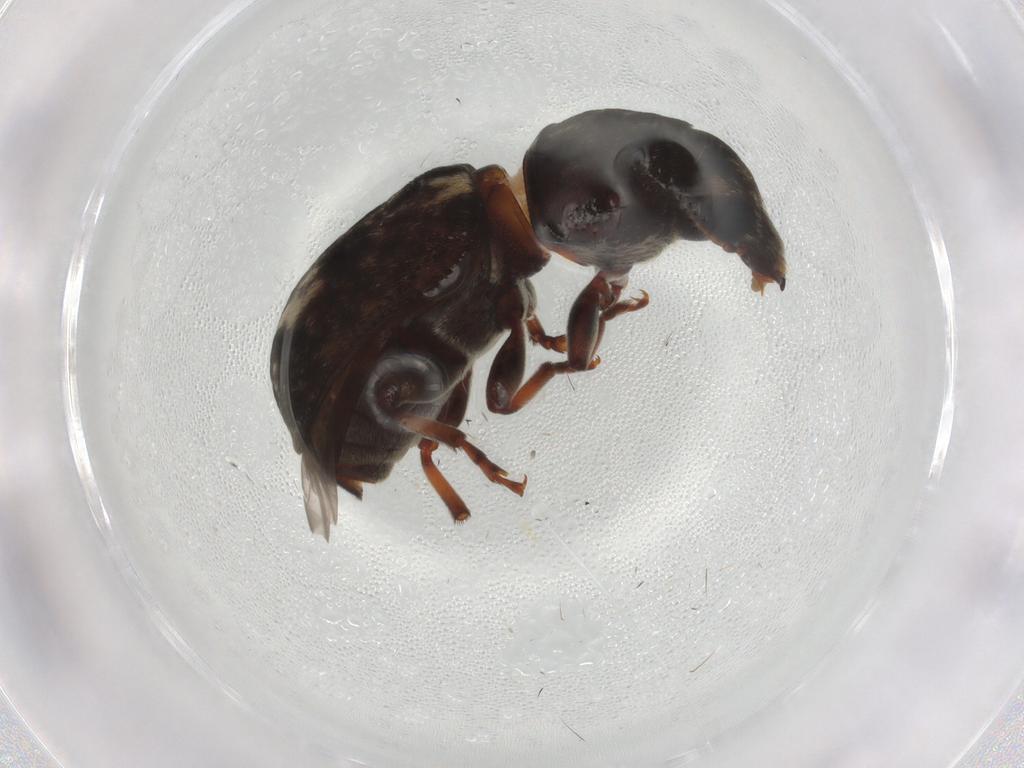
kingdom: Animalia
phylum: Arthropoda
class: Insecta
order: Coleoptera
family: Anthribidae
